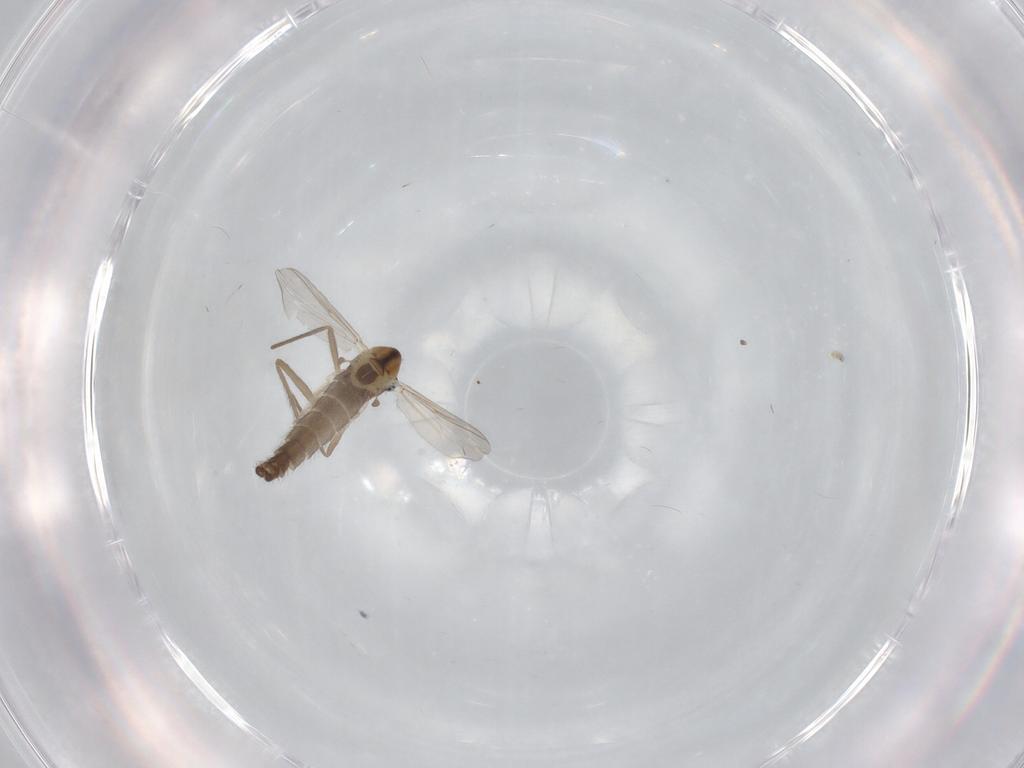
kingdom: Animalia
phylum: Arthropoda
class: Insecta
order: Diptera
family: Chironomidae
